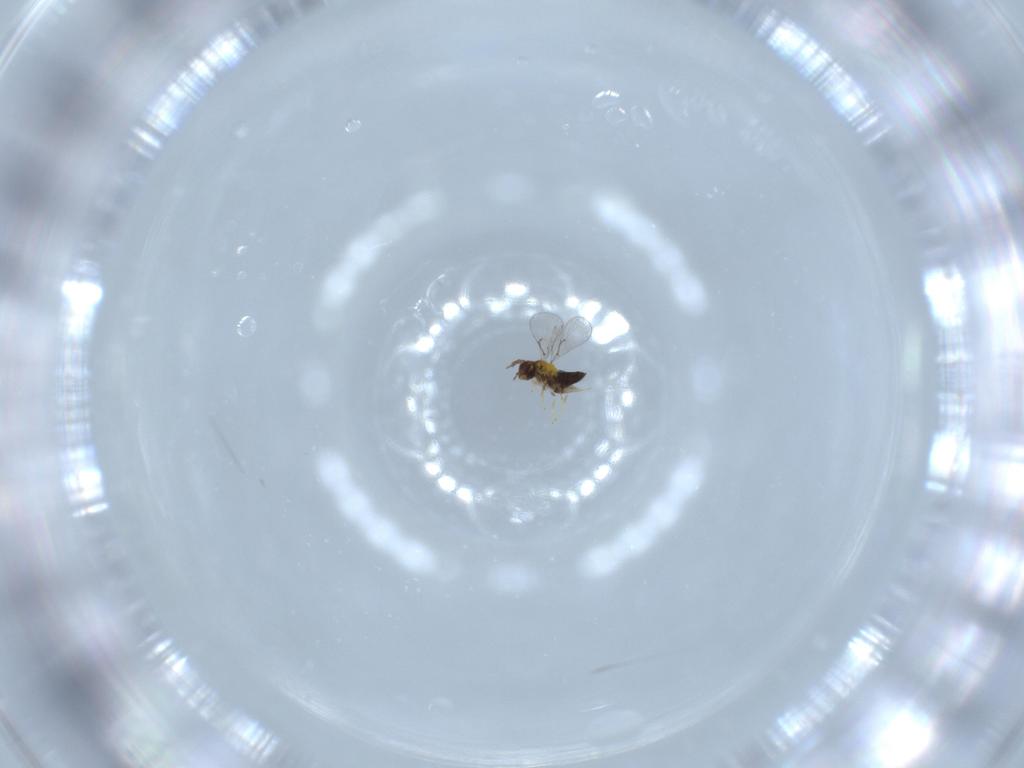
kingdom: Animalia
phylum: Arthropoda
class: Insecta
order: Hymenoptera
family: Trichogrammatidae
